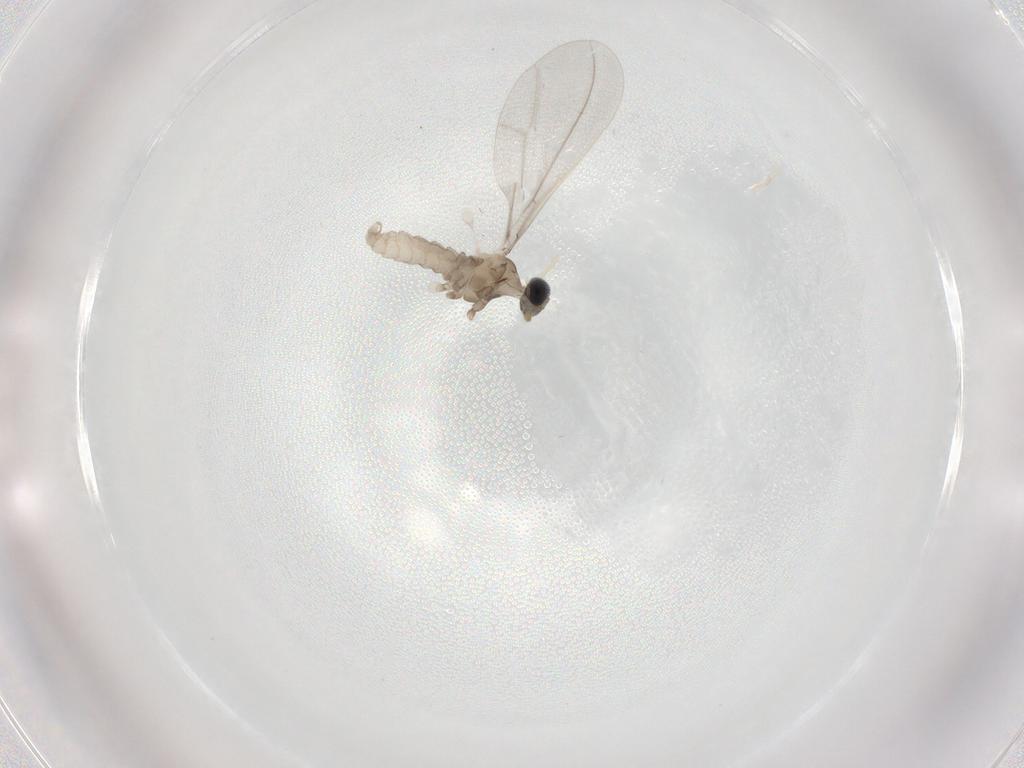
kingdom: Animalia
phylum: Arthropoda
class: Insecta
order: Diptera
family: Cecidomyiidae
